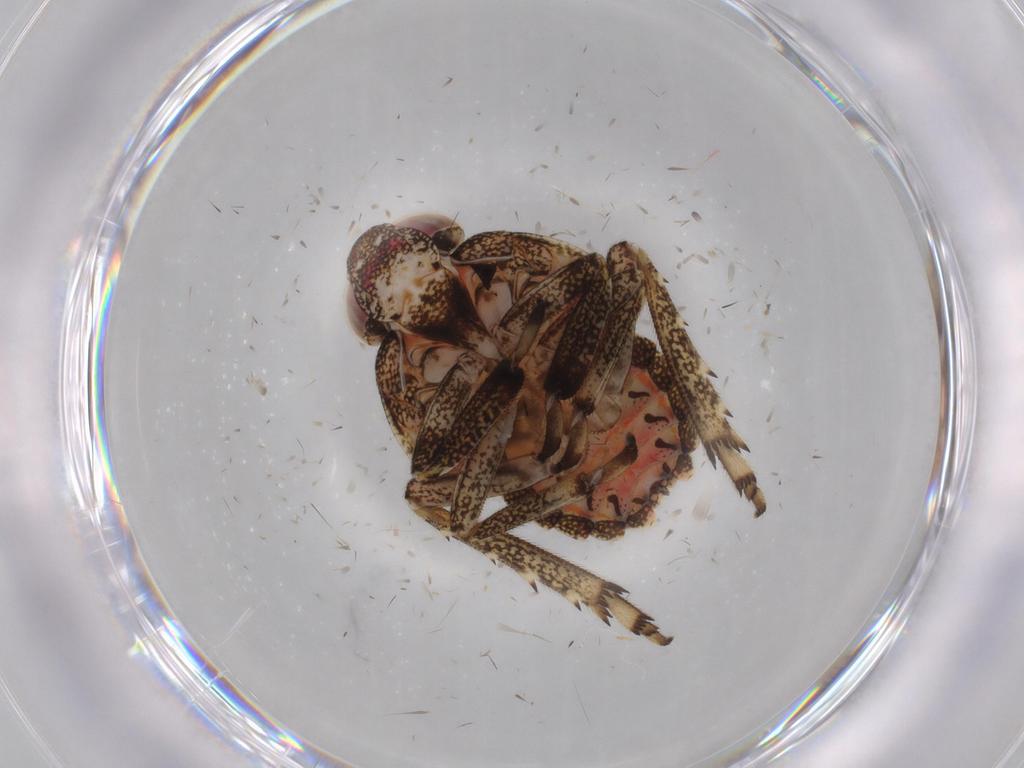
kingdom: Animalia
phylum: Arthropoda
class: Insecta
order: Hemiptera
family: Issidae
